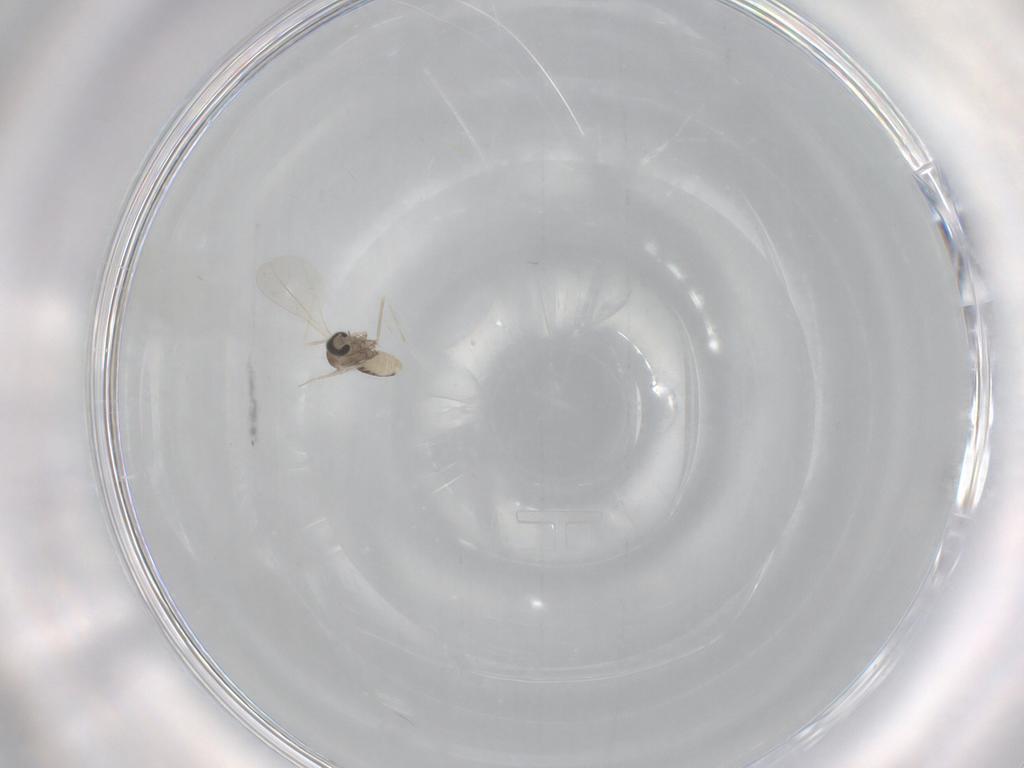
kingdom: Animalia
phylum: Arthropoda
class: Insecta
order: Diptera
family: Cecidomyiidae
